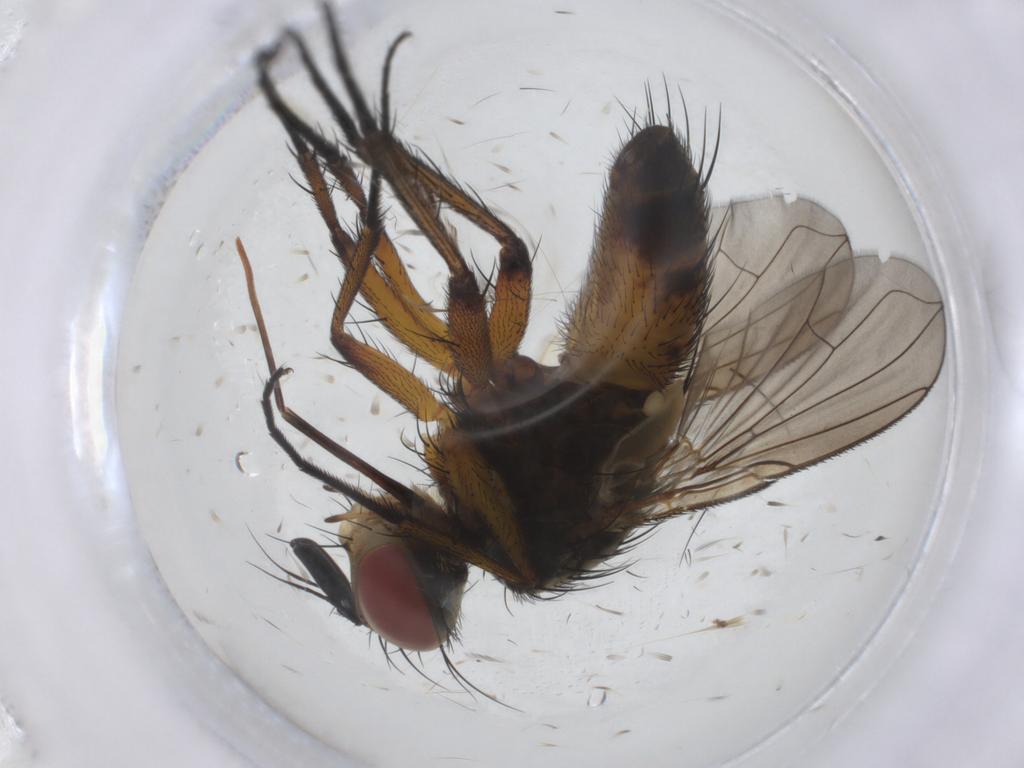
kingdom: Animalia
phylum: Arthropoda
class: Insecta
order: Diptera
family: Tachinidae
